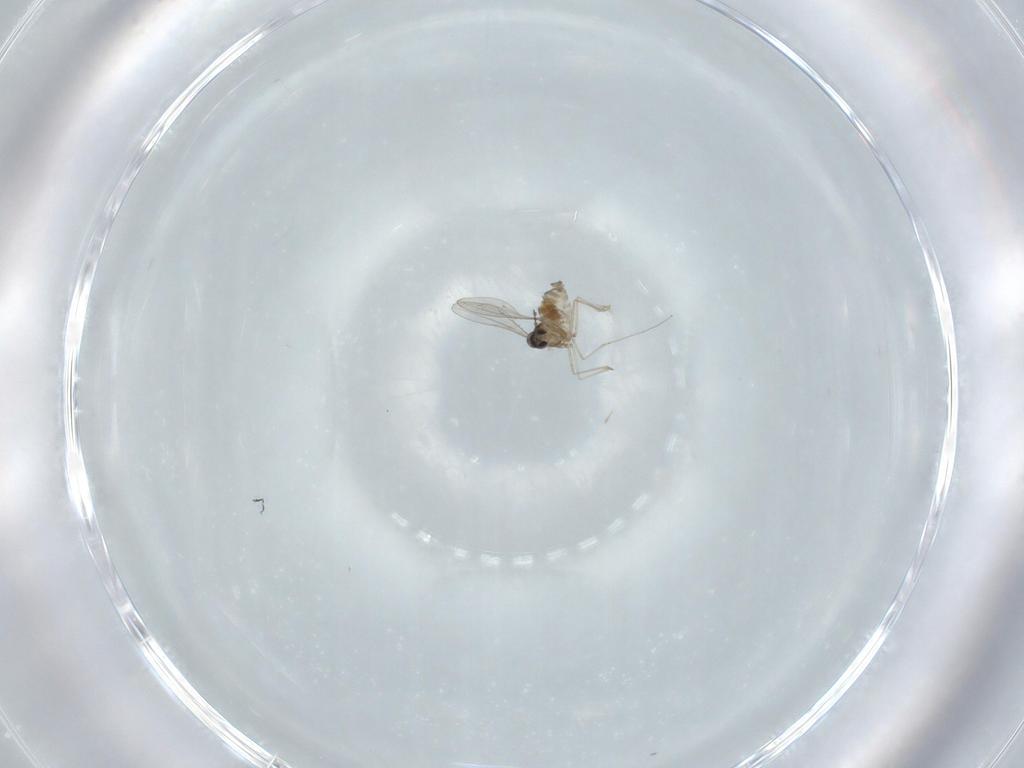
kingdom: Animalia
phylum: Arthropoda
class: Insecta
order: Diptera
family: Cecidomyiidae
